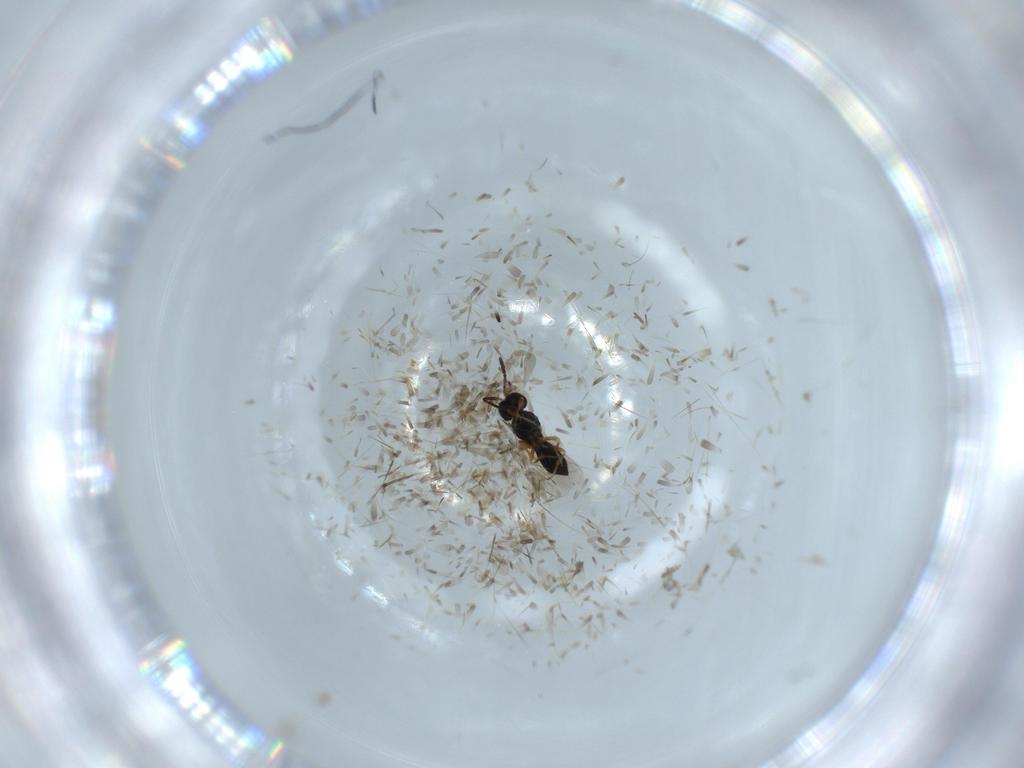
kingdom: Animalia
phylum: Arthropoda
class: Insecta
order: Hymenoptera
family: Scelionidae
